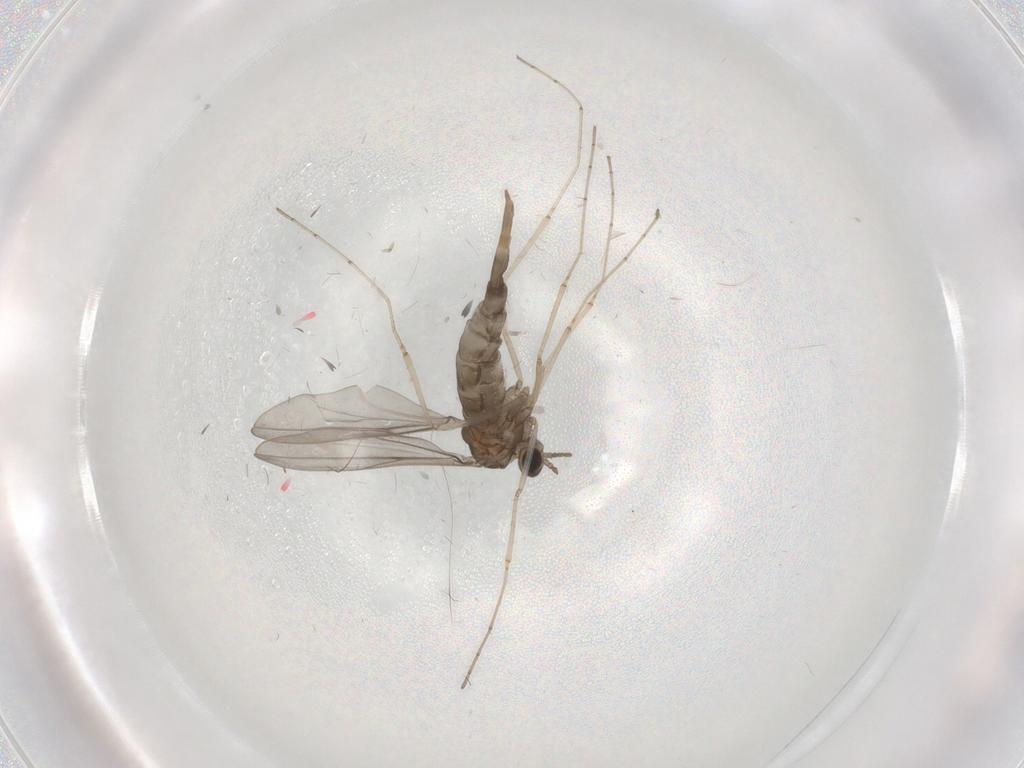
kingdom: Animalia
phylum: Arthropoda
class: Insecta
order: Diptera
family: Cecidomyiidae
